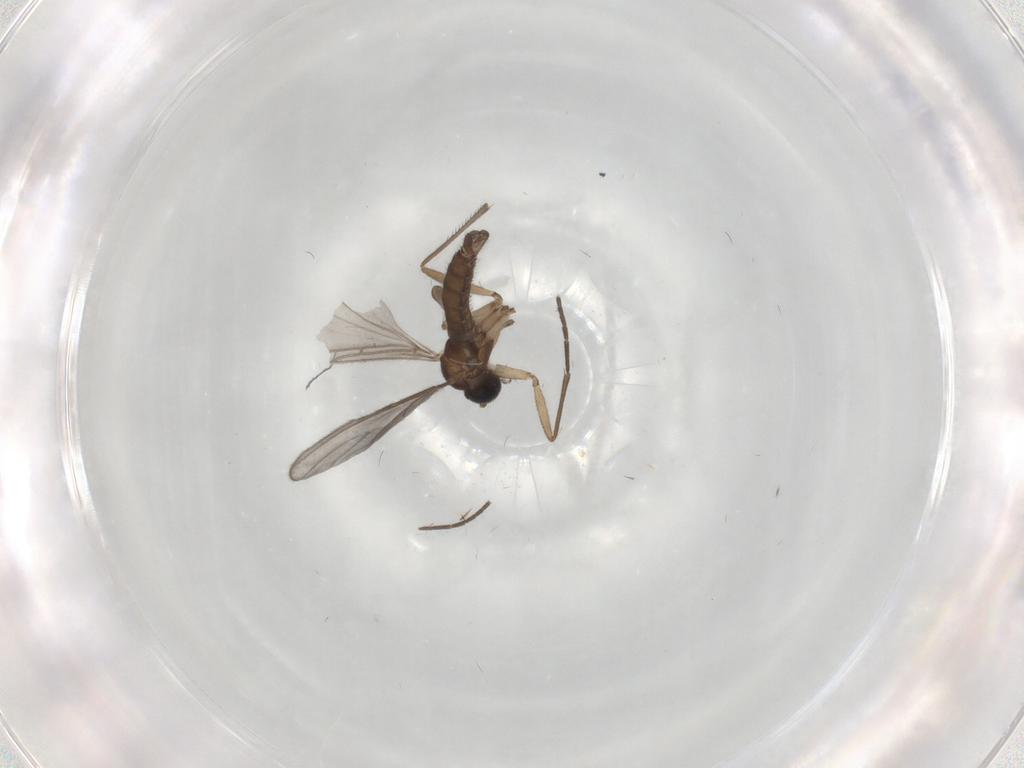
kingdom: Animalia
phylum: Arthropoda
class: Insecta
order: Diptera
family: Sciaridae
